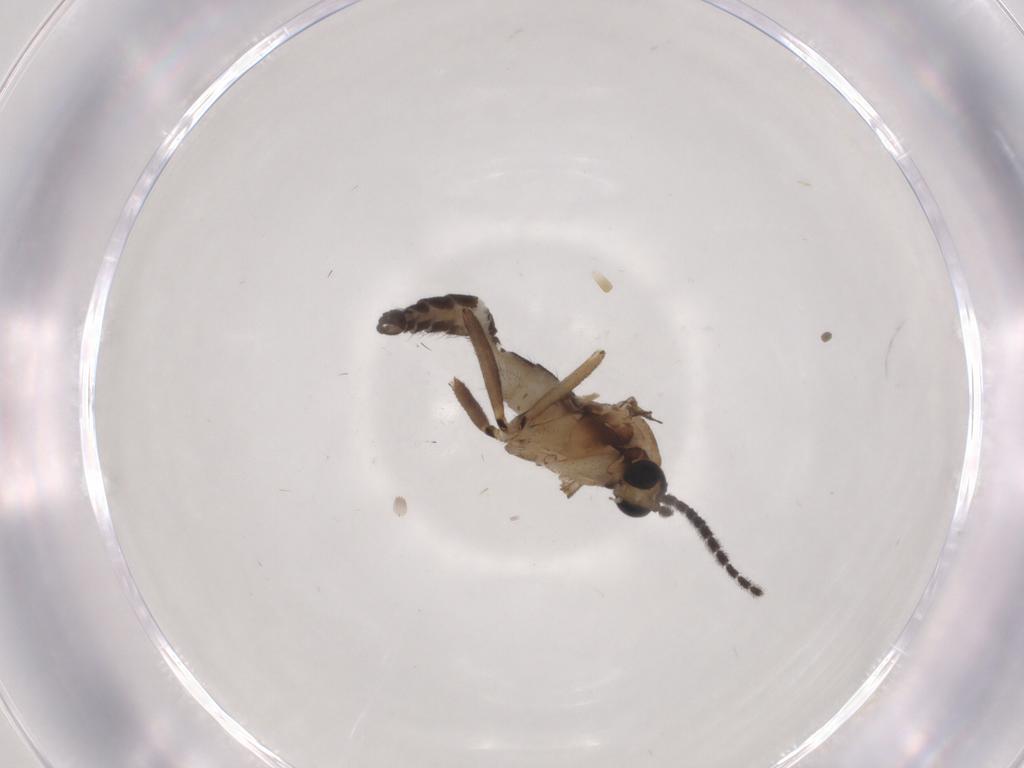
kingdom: Animalia
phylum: Arthropoda
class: Insecta
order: Diptera
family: Sciaridae
